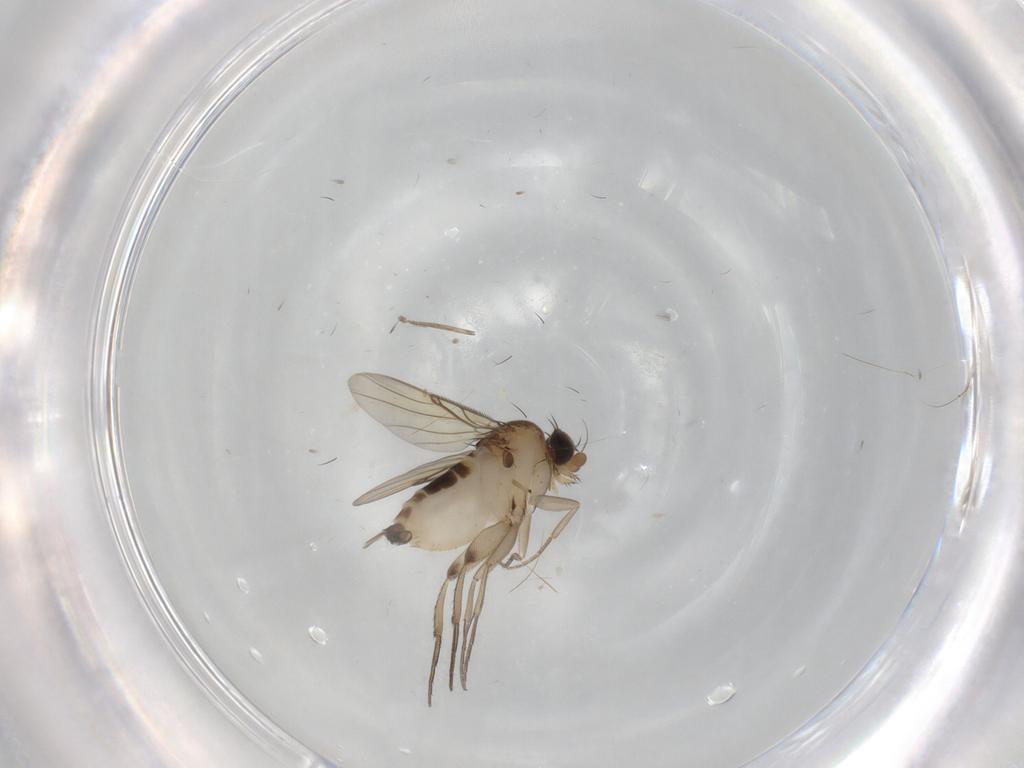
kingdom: Animalia
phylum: Arthropoda
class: Insecta
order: Diptera
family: Phoridae
